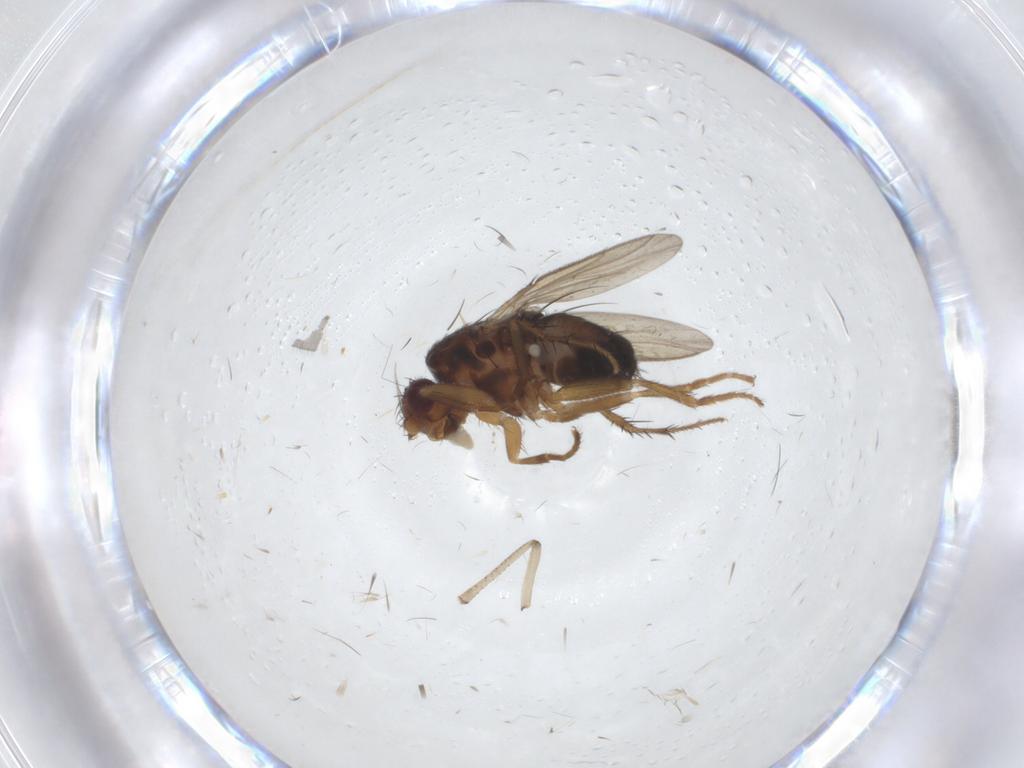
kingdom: Animalia
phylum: Arthropoda
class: Insecta
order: Diptera
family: Sphaeroceridae
